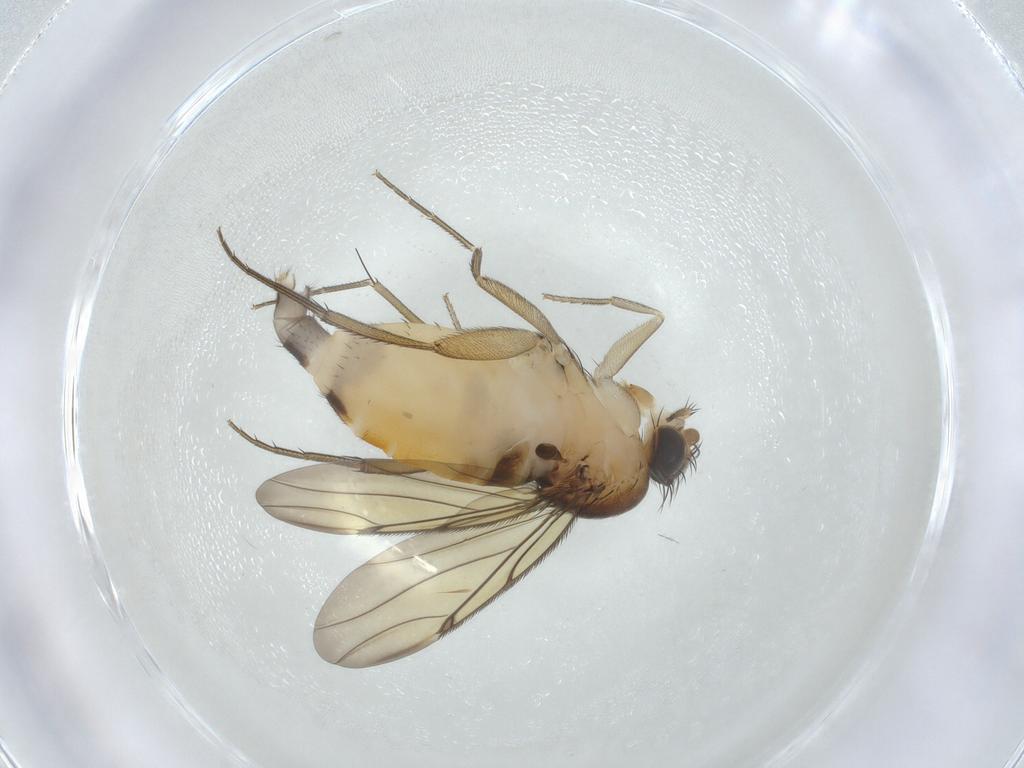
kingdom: Animalia
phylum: Arthropoda
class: Insecta
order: Diptera
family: Phoridae
